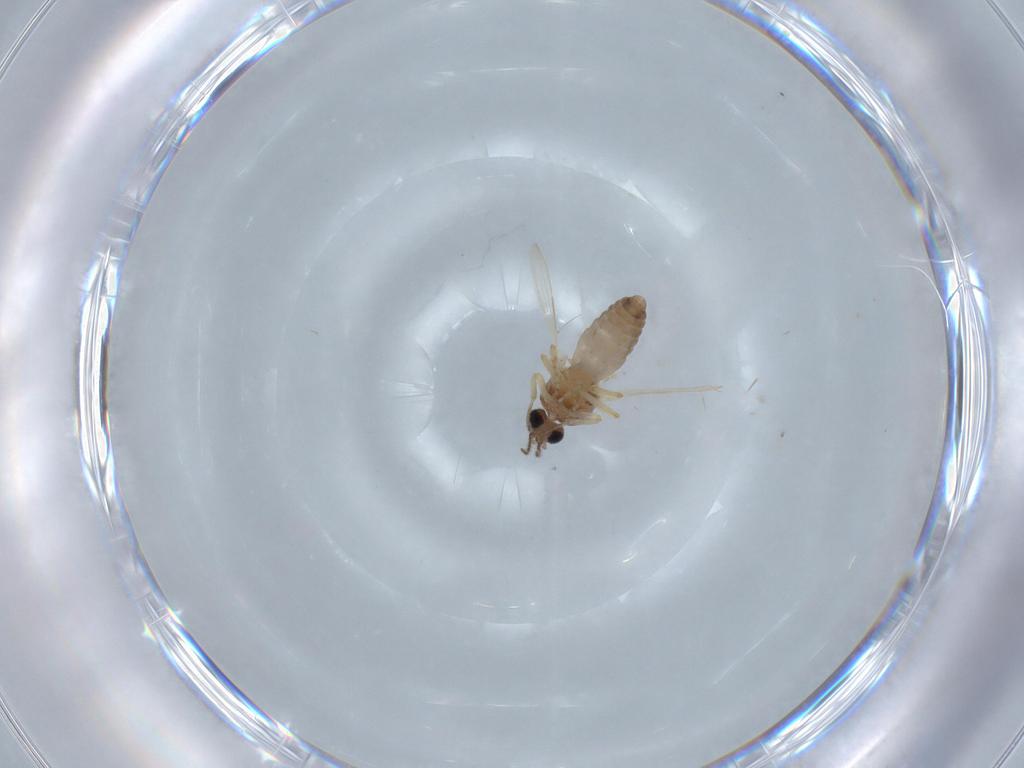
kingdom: Animalia
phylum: Arthropoda
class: Insecta
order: Diptera
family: Ceratopogonidae
